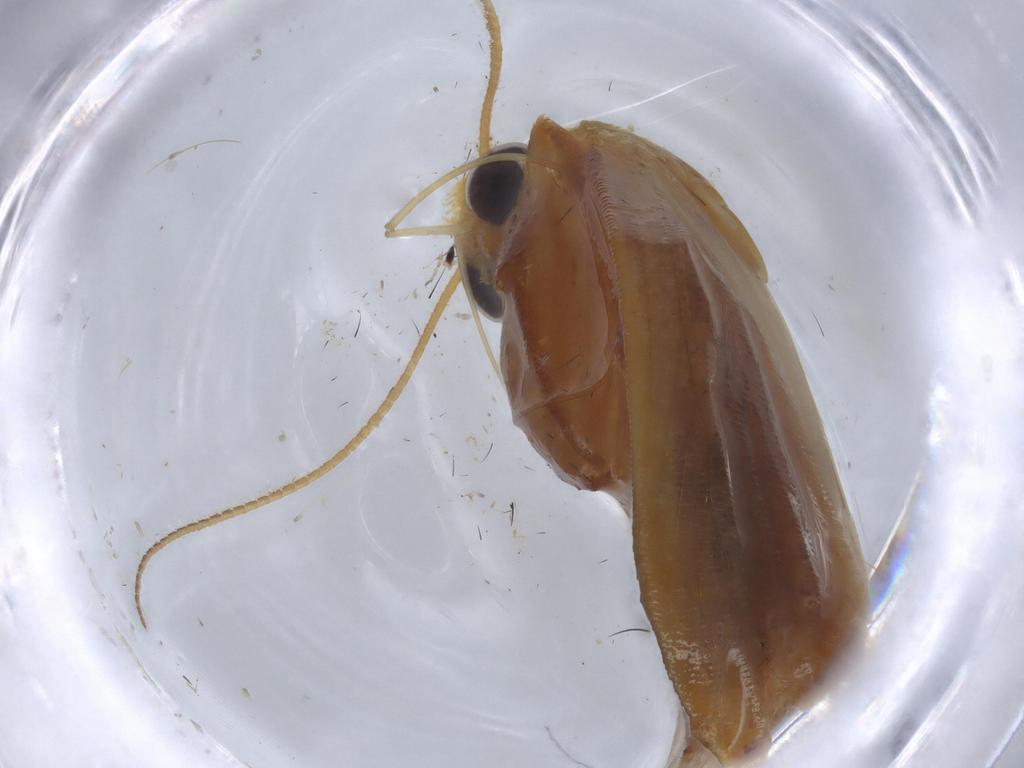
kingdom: Animalia
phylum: Arthropoda
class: Insecta
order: Lepidoptera
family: Erebidae
